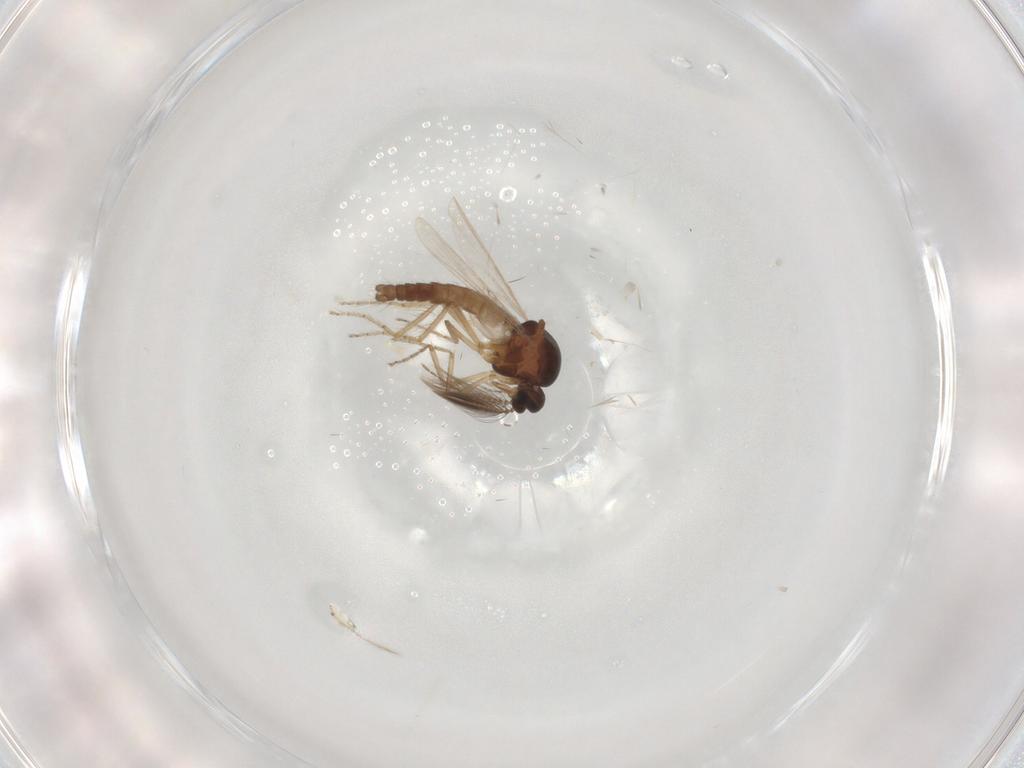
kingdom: Animalia
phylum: Arthropoda
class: Insecta
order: Diptera
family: Ceratopogonidae
